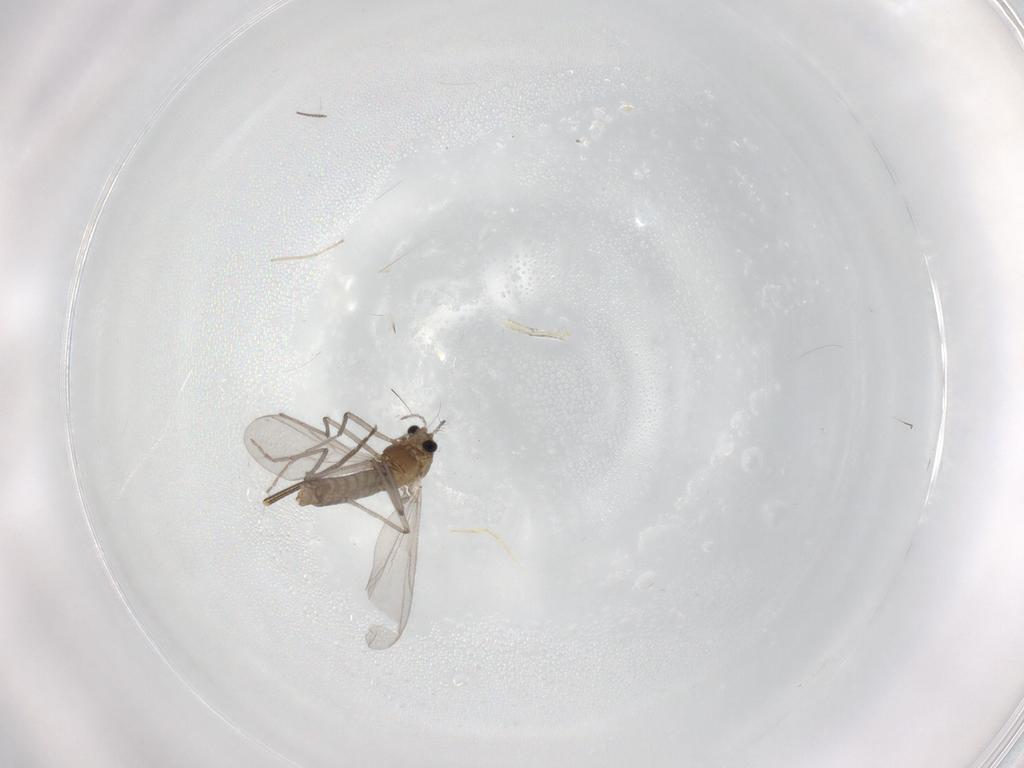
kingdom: Animalia
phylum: Arthropoda
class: Insecta
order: Diptera
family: Chironomidae
